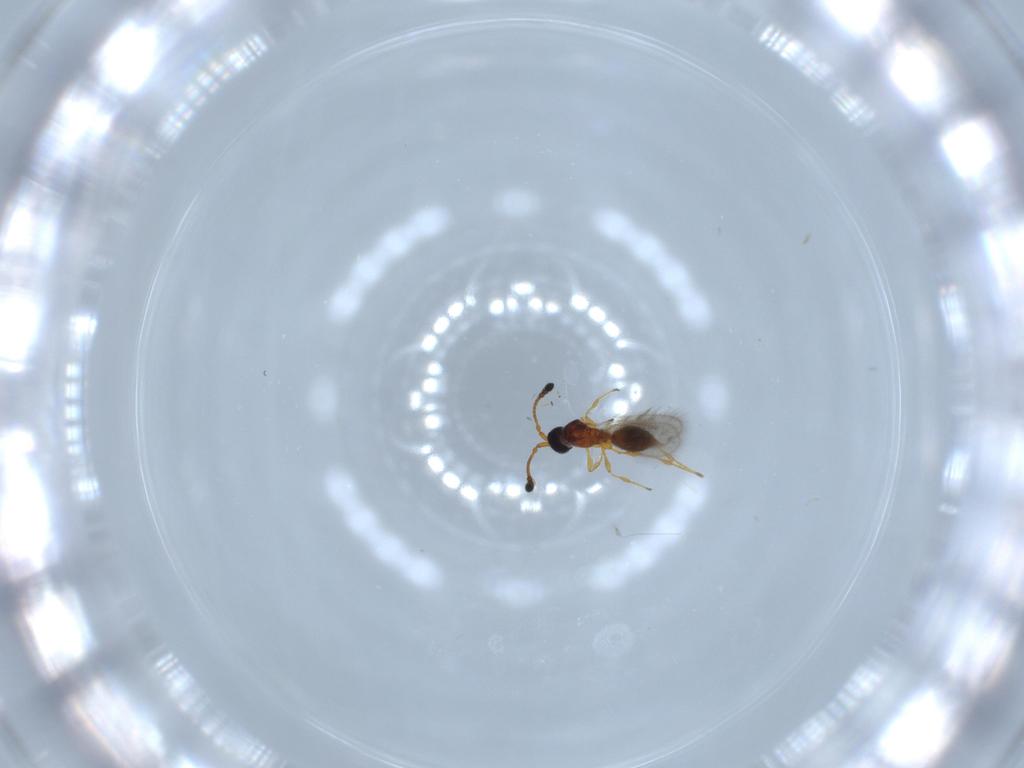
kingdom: Animalia
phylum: Arthropoda
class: Insecta
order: Hymenoptera
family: Diapriidae
